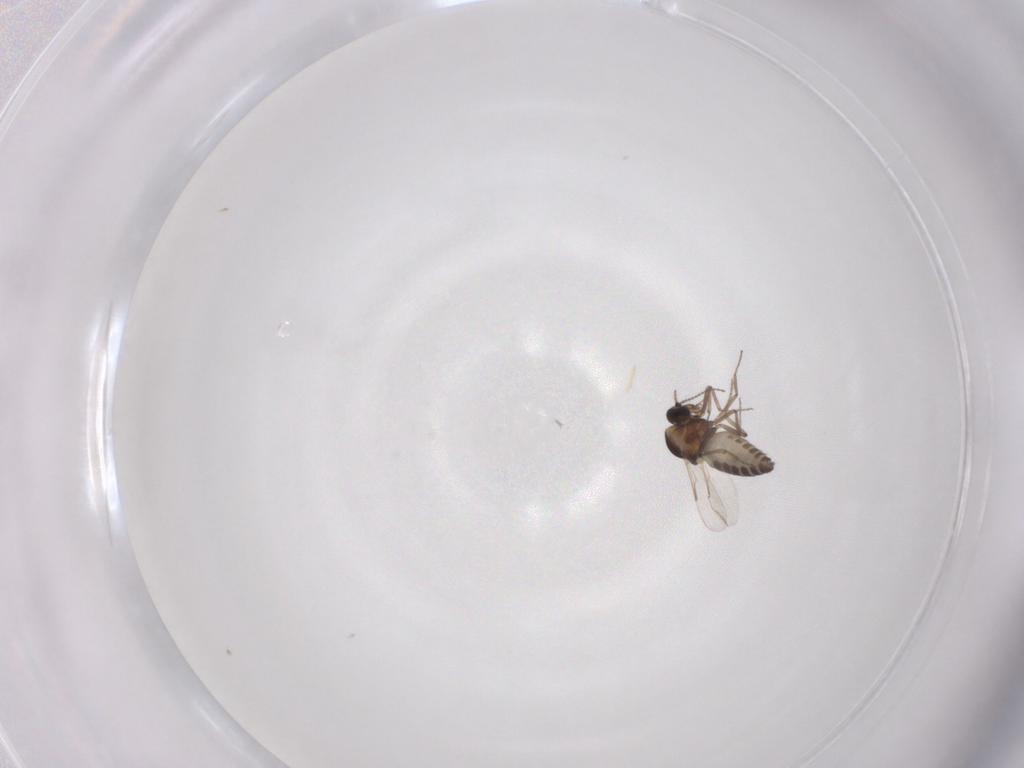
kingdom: Animalia
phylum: Arthropoda
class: Insecta
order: Diptera
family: Ceratopogonidae
